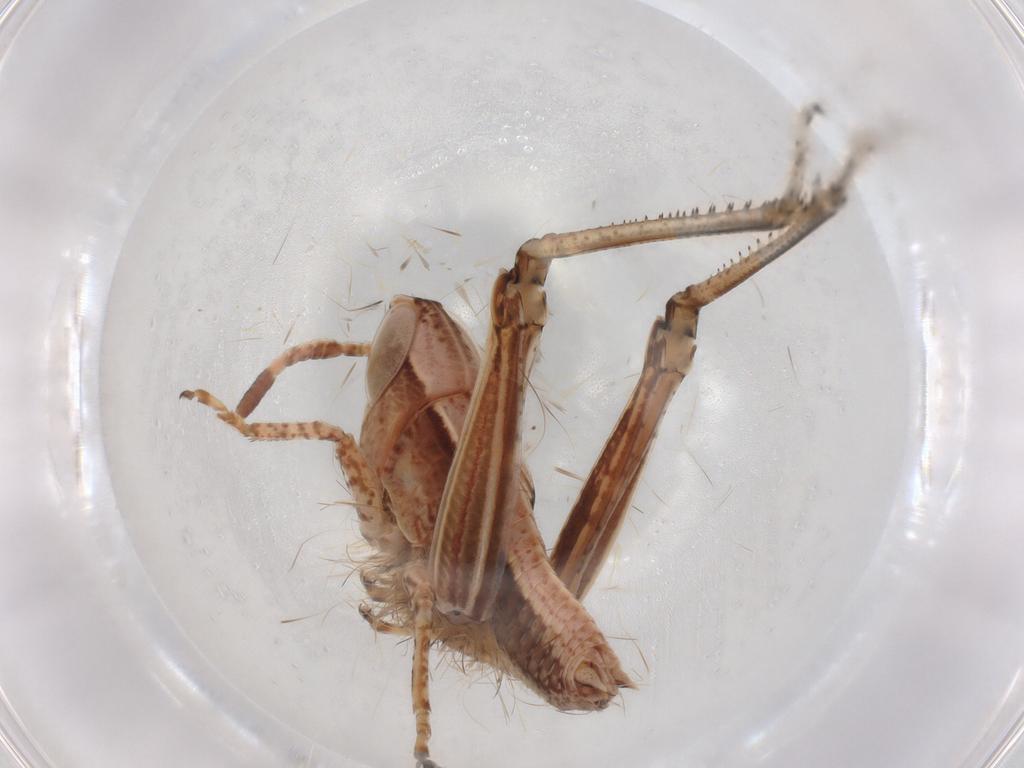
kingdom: Animalia
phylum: Arthropoda
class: Insecta
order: Orthoptera
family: Acrididae
